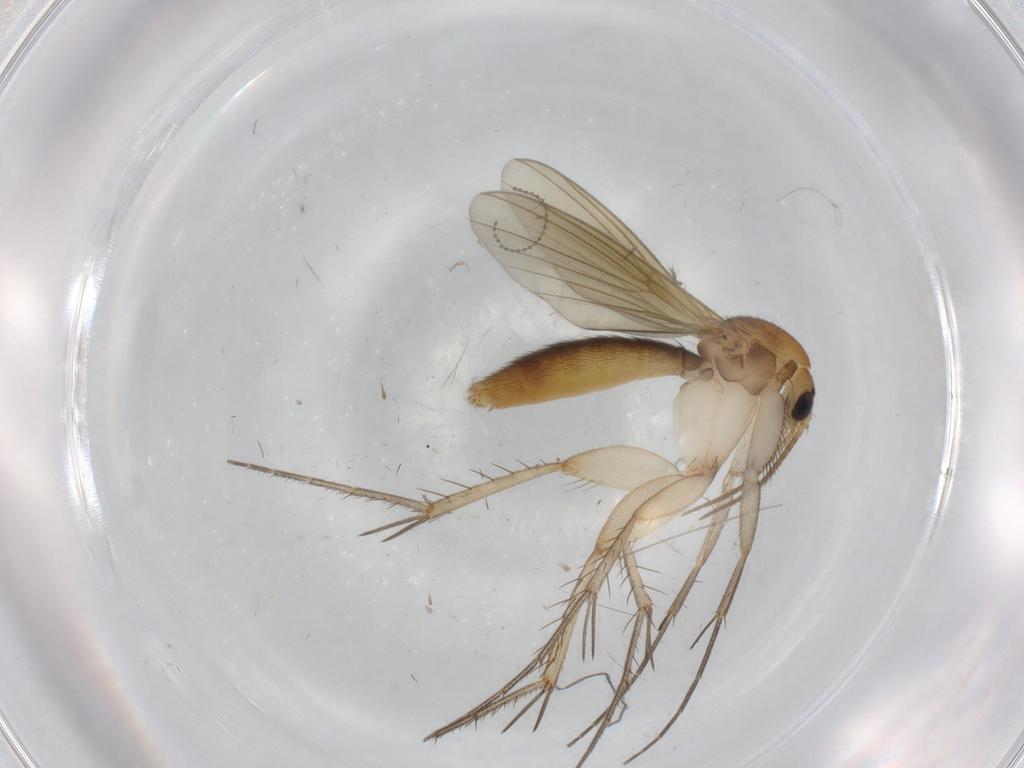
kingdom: Animalia
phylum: Arthropoda
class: Insecta
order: Diptera
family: Mycetophilidae
